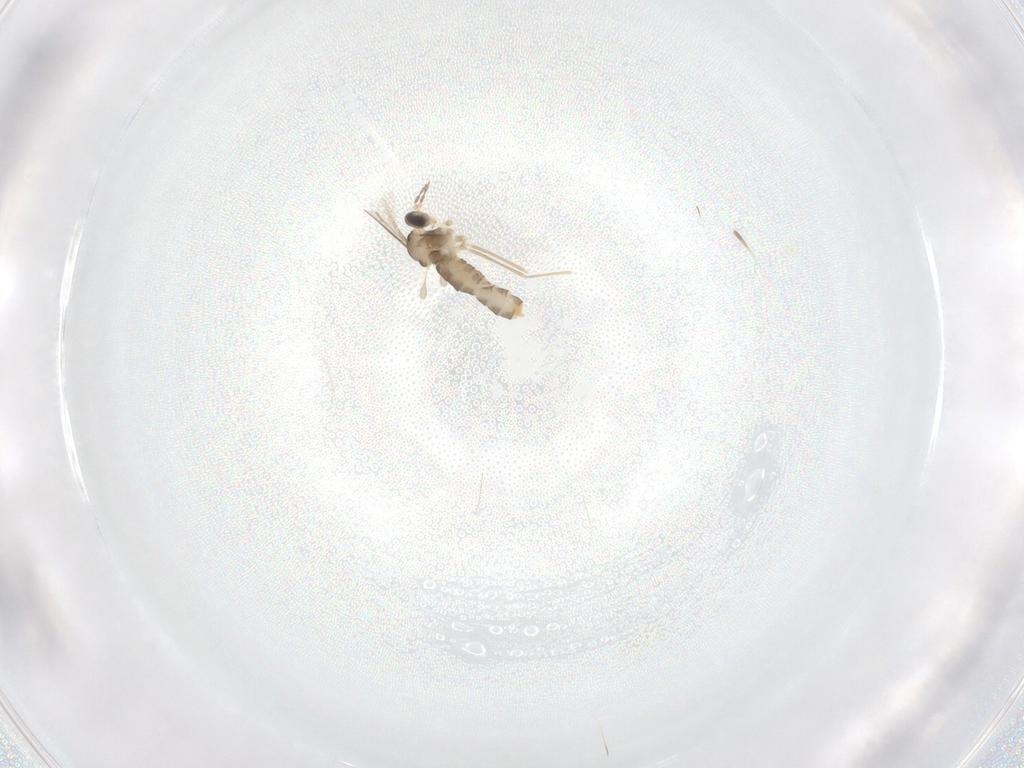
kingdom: Animalia
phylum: Arthropoda
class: Insecta
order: Diptera
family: Cecidomyiidae
